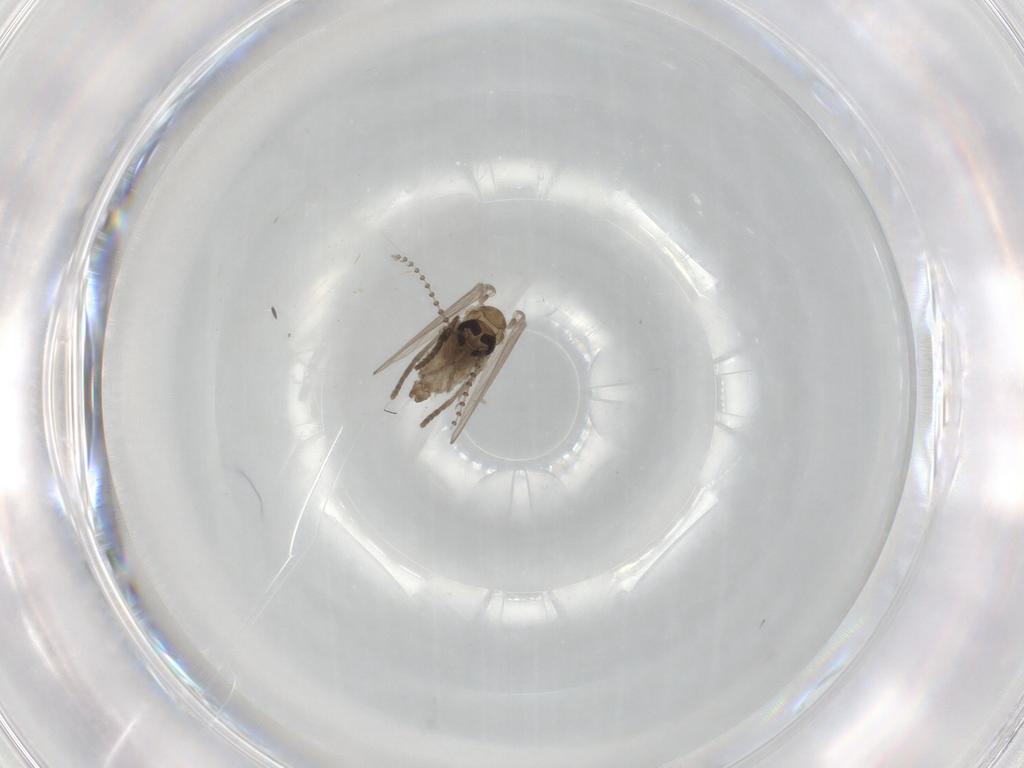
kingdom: Animalia
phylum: Arthropoda
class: Insecta
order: Diptera
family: Psychodidae
